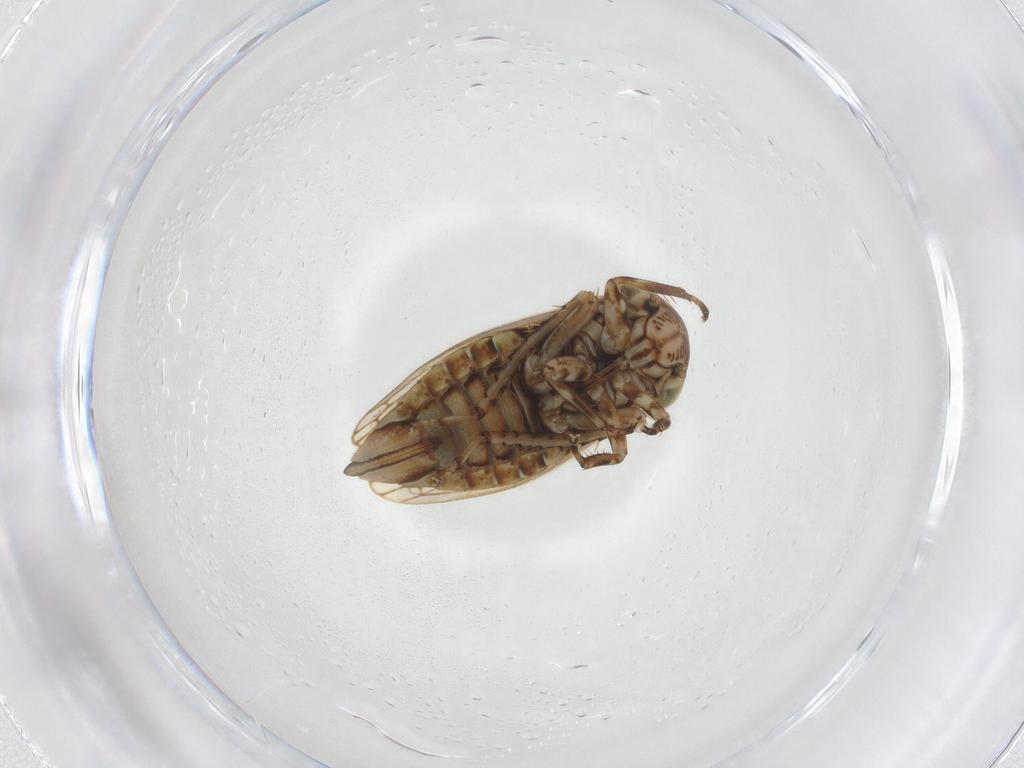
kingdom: Animalia
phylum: Arthropoda
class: Insecta
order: Hemiptera
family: Cicadellidae
